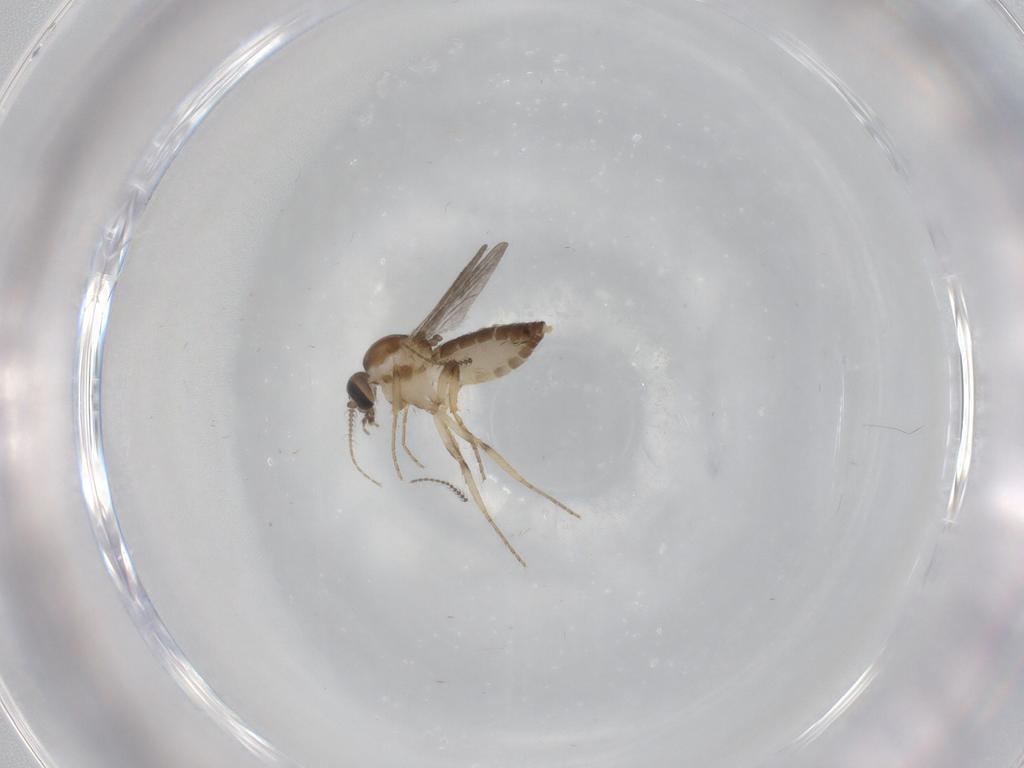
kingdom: Animalia
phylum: Arthropoda
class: Insecta
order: Diptera
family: Ceratopogonidae
